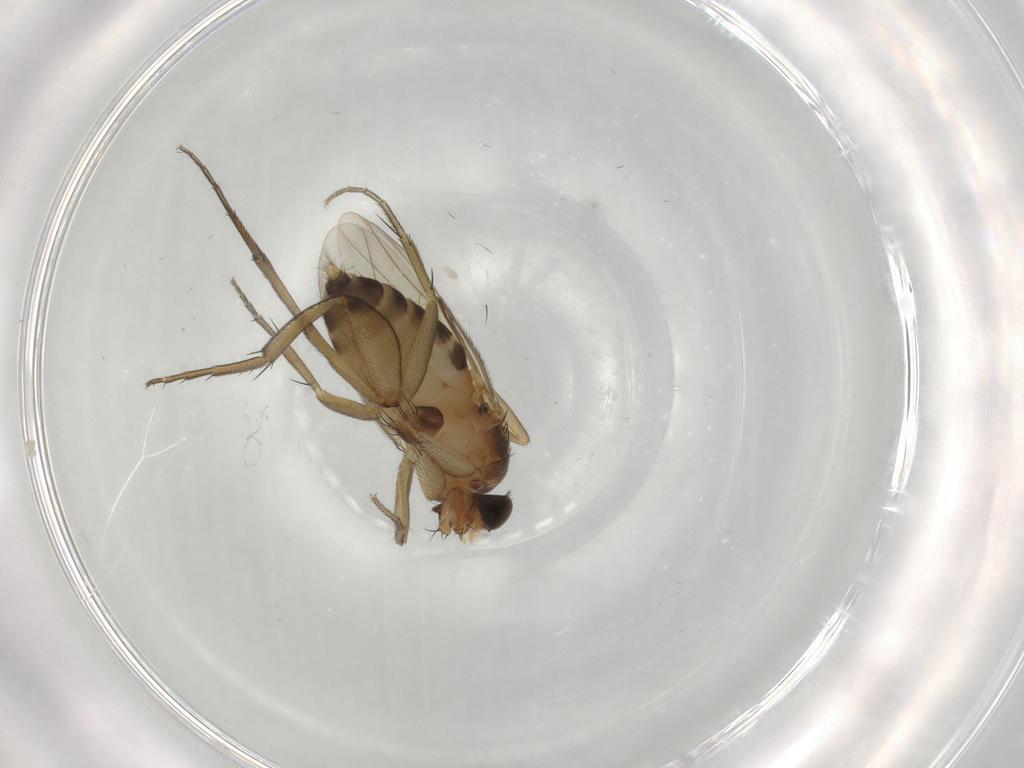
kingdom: Animalia
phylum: Arthropoda
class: Insecta
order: Diptera
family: Phoridae
